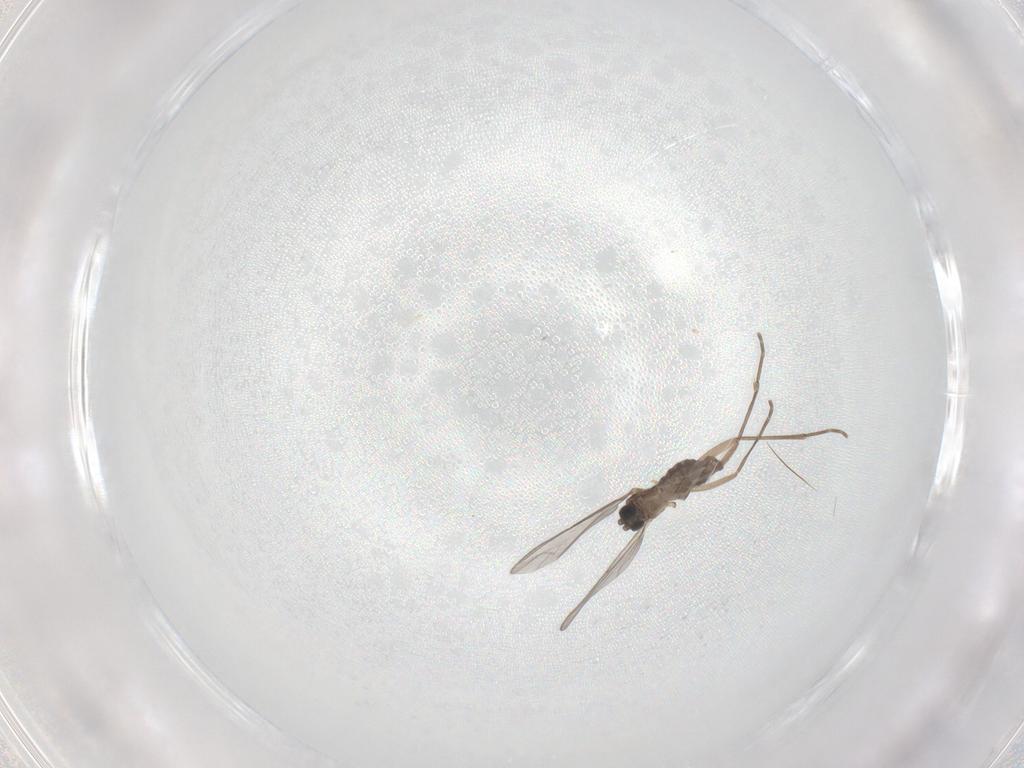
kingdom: Animalia
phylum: Arthropoda
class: Insecta
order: Diptera
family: Sciaridae
